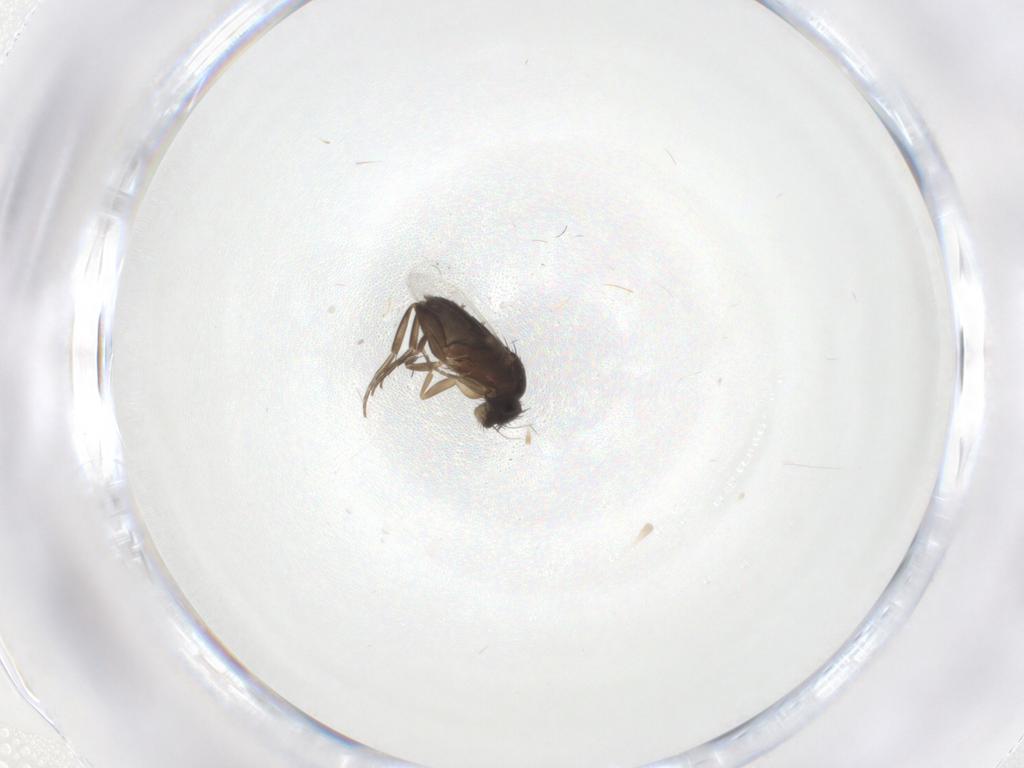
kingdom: Animalia
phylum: Arthropoda
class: Insecta
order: Diptera
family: Phoridae
